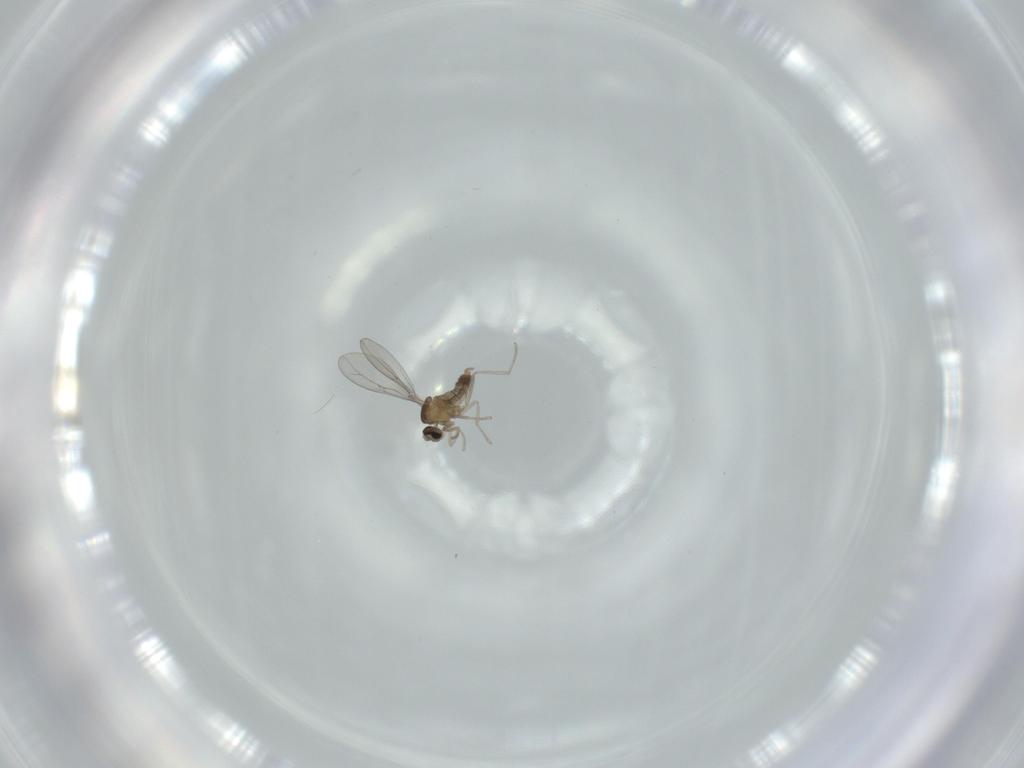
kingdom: Animalia
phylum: Arthropoda
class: Insecta
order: Diptera
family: Cecidomyiidae
